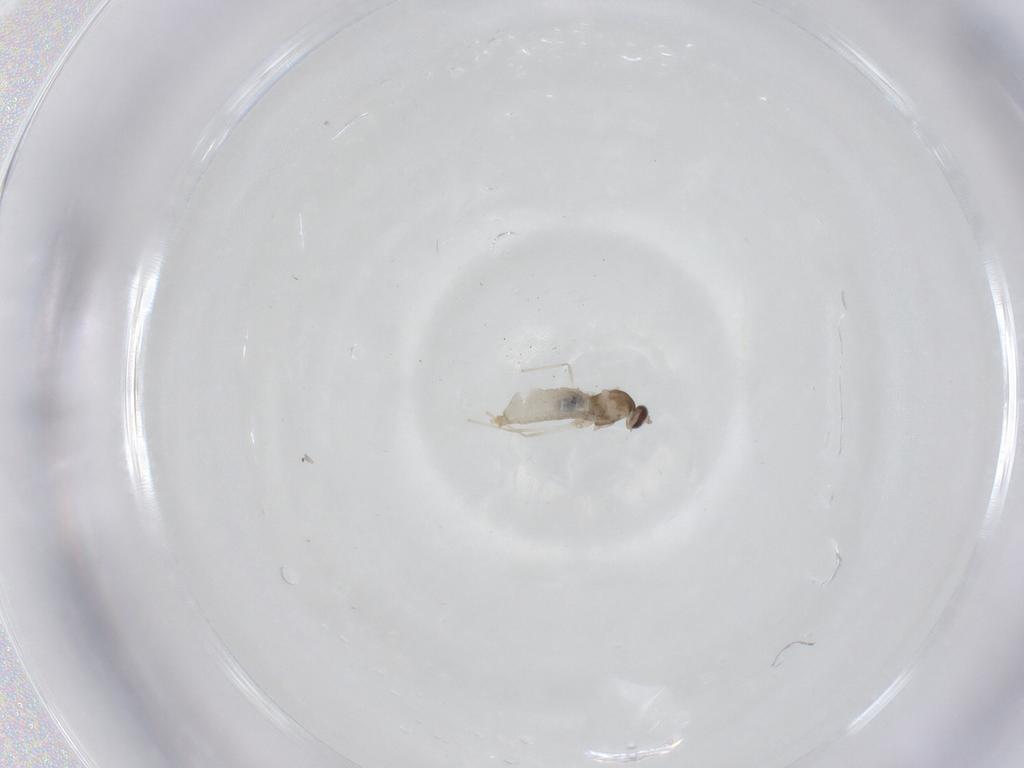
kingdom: Animalia
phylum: Arthropoda
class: Insecta
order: Diptera
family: Cecidomyiidae
